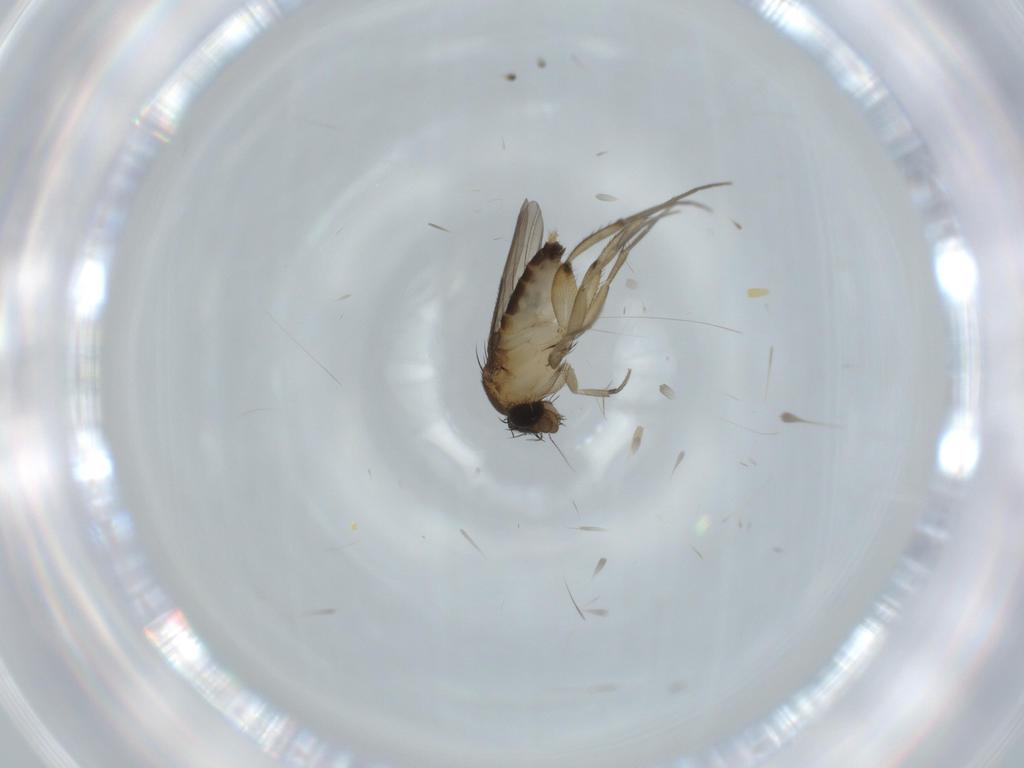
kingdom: Animalia
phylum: Arthropoda
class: Insecta
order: Diptera
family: Phoridae
